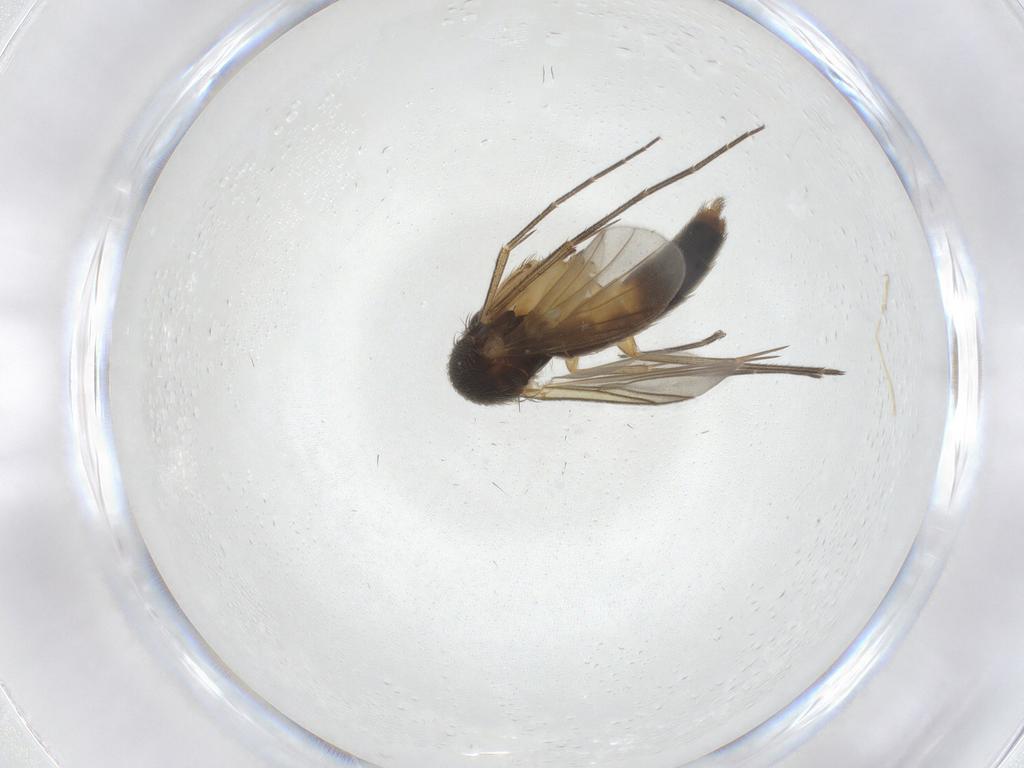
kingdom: Animalia
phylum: Arthropoda
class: Insecta
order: Diptera
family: Mycetophilidae
